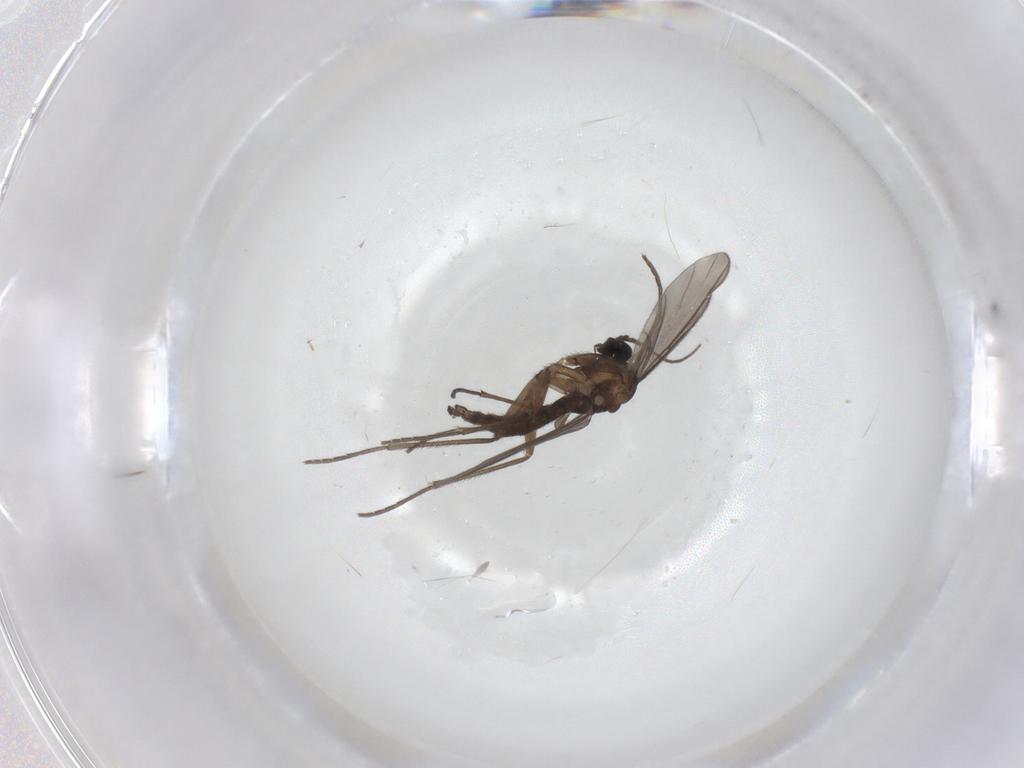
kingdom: Animalia
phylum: Arthropoda
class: Insecta
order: Diptera
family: Sciaridae
